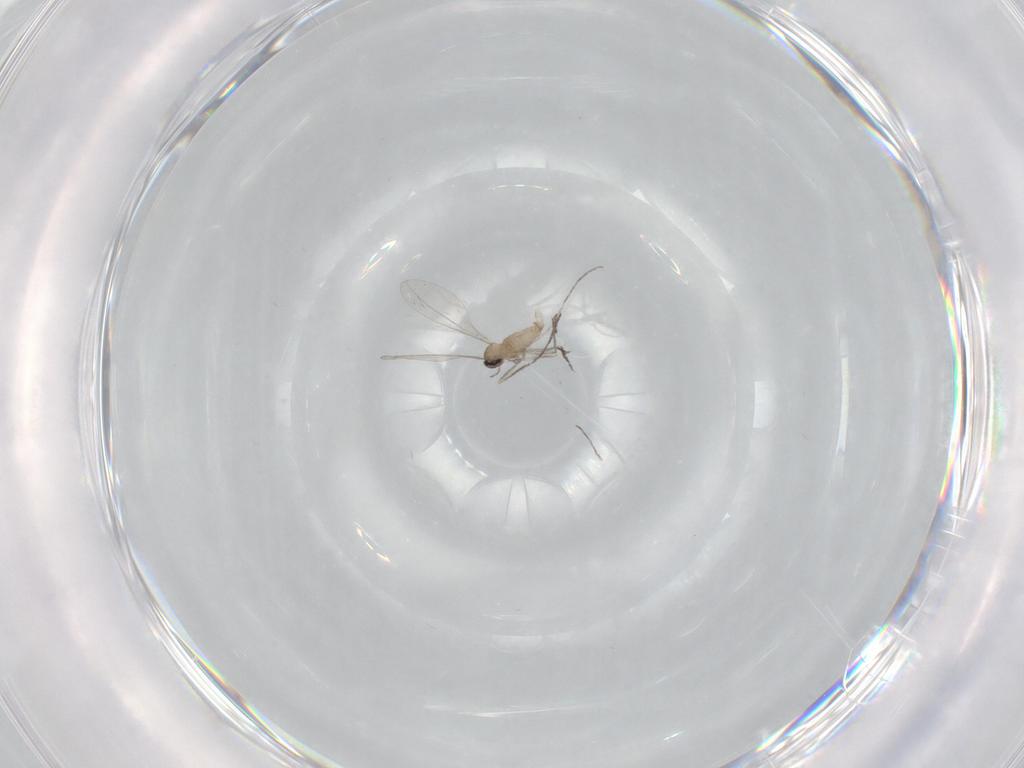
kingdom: Animalia
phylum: Arthropoda
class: Insecta
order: Diptera
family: Cecidomyiidae
